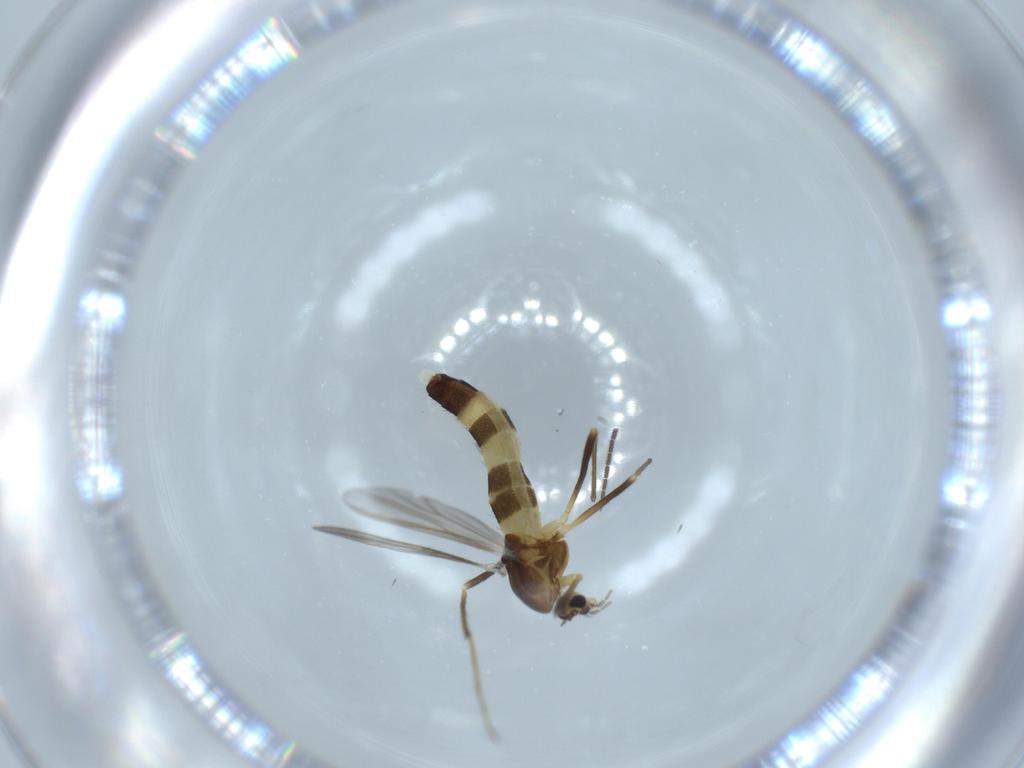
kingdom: Animalia
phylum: Arthropoda
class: Insecta
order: Diptera
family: Chironomidae
